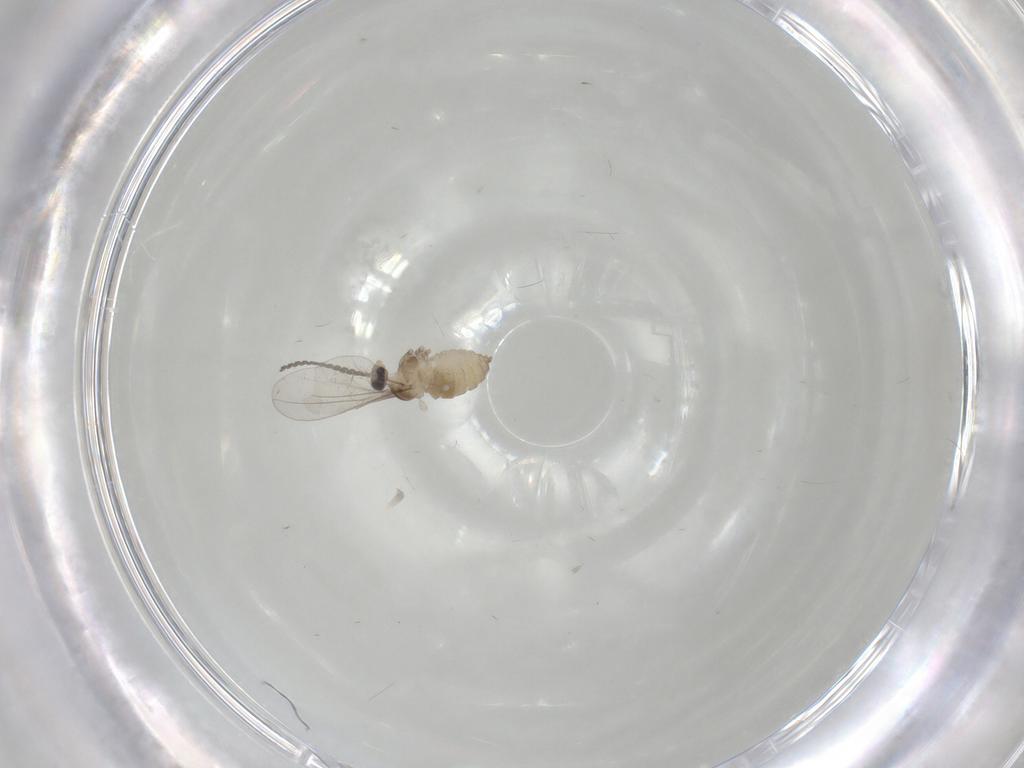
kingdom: Animalia
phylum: Arthropoda
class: Insecta
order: Diptera
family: Cecidomyiidae
